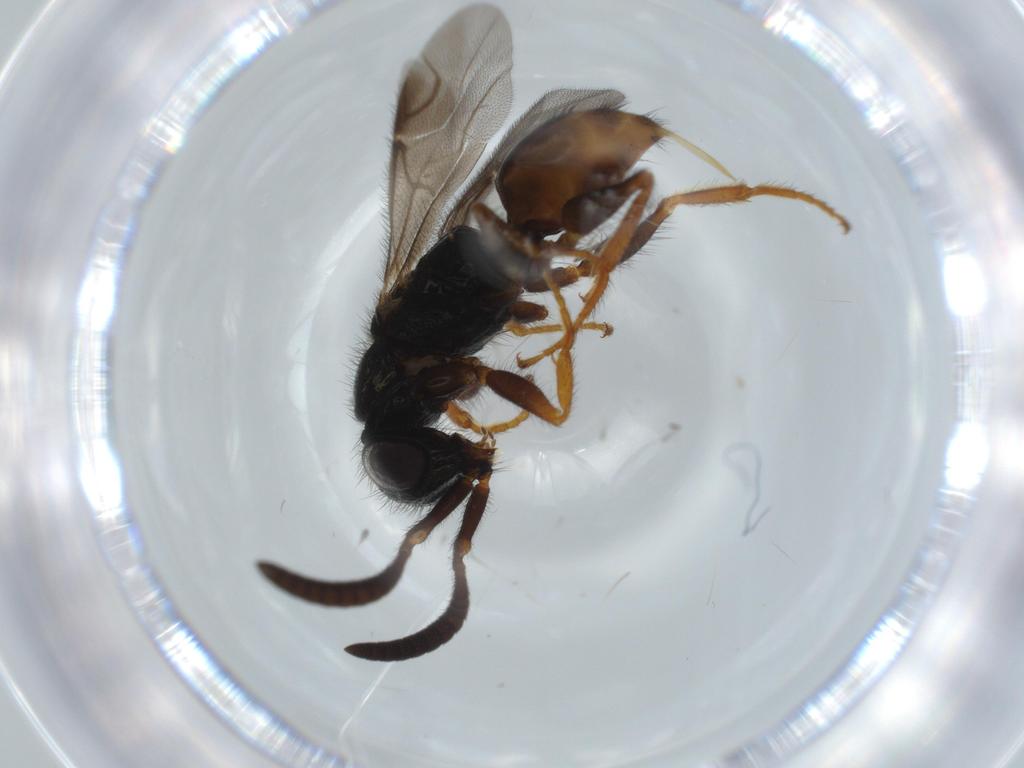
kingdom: Animalia
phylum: Arthropoda
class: Insecta
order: Hymenoptera
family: Chrysididae
